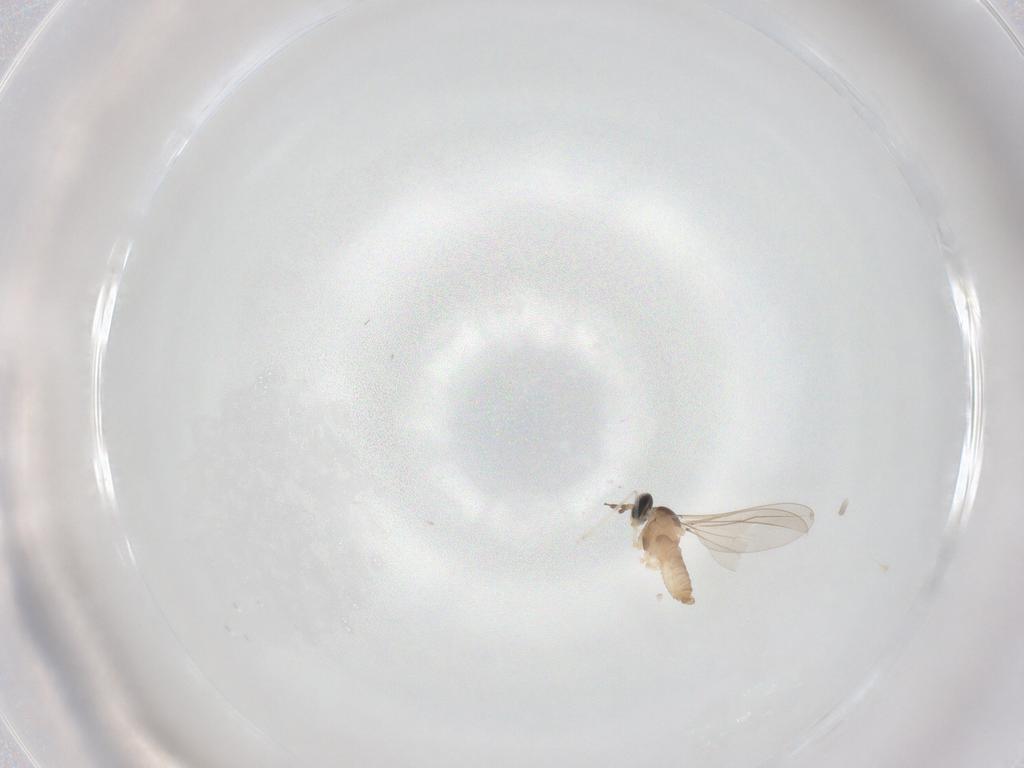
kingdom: Animalia
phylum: Arthropoda
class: Insecta
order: Diptera
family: Cecidomyiidae
